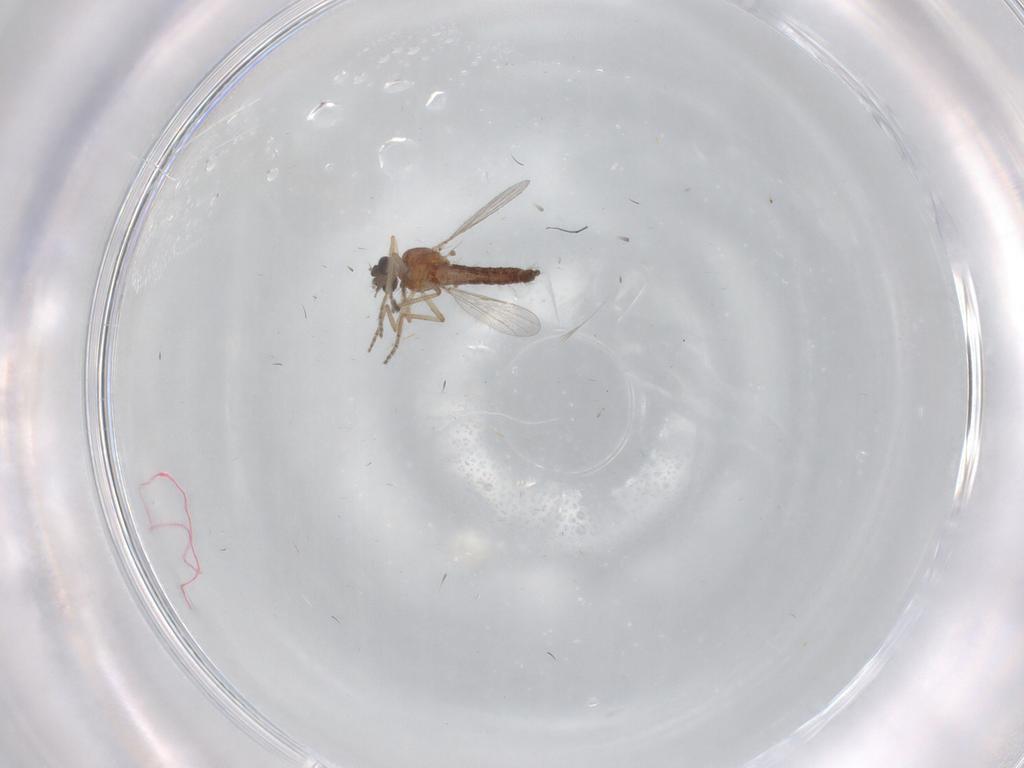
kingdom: Animalia
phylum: Arthropoda
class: Insecta
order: Diptera
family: Ceratopogonidae
